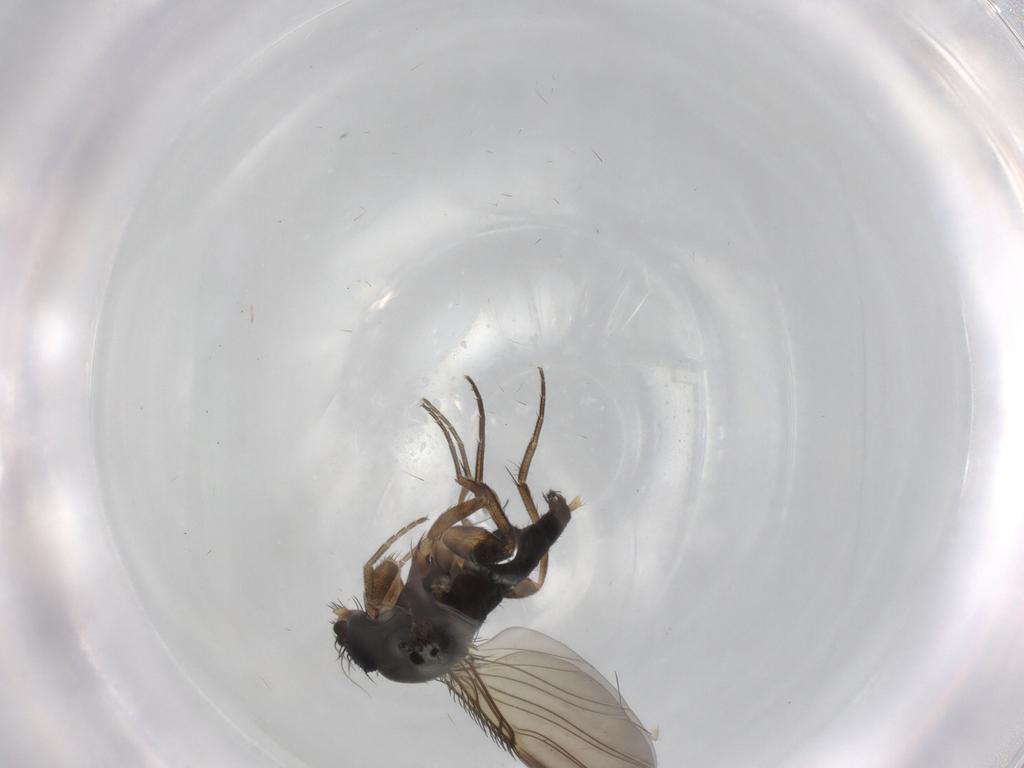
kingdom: Animalia
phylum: Arthropoda
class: Insecta
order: Diptera
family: Phoridae
